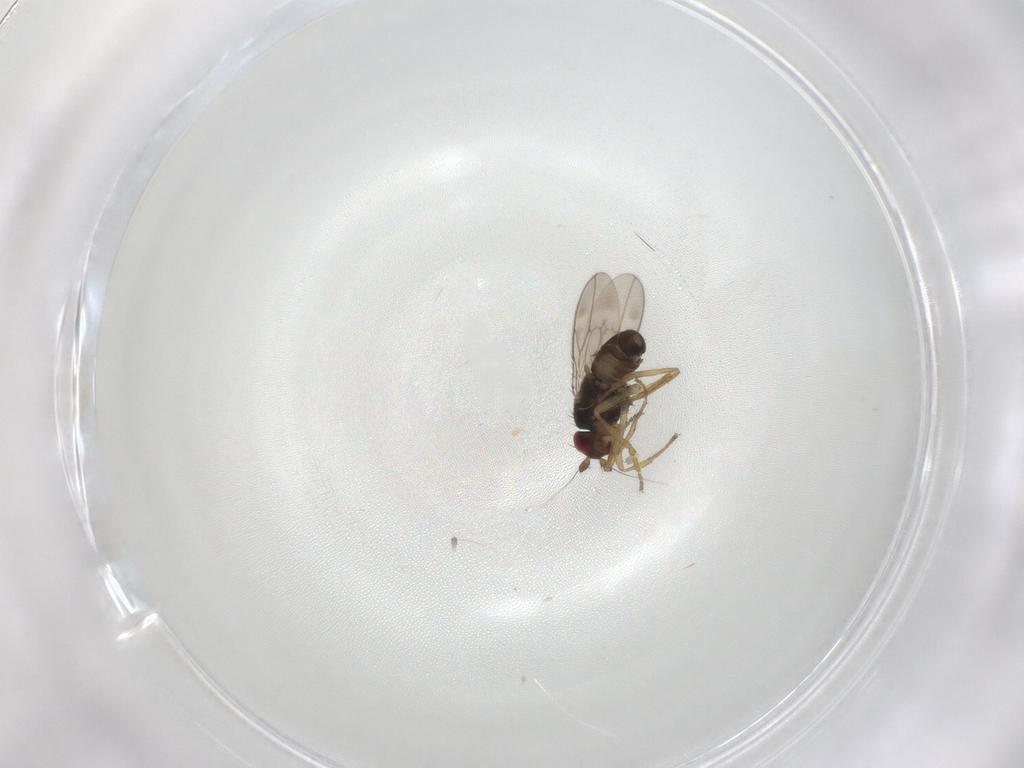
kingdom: Animalia
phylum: Arthropoda
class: Insecta
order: Diptera
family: Sphaeroceridae
